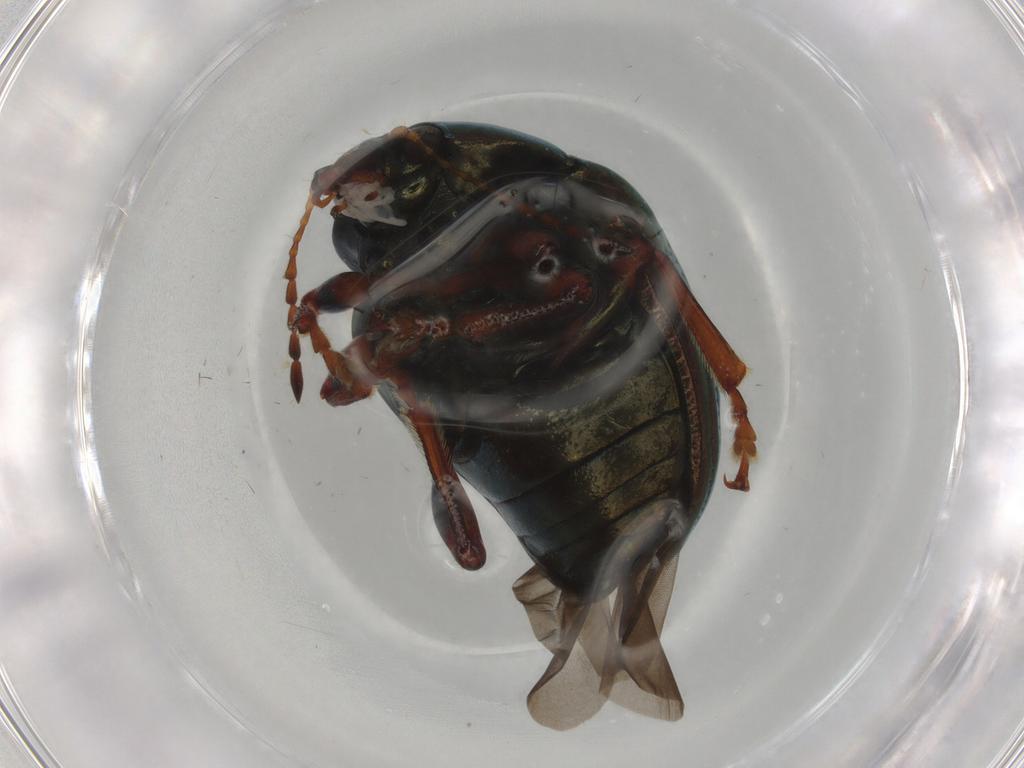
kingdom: Animalia
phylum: Arthropoda
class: Insecta
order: Coleoptera
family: Chrysomelidae
